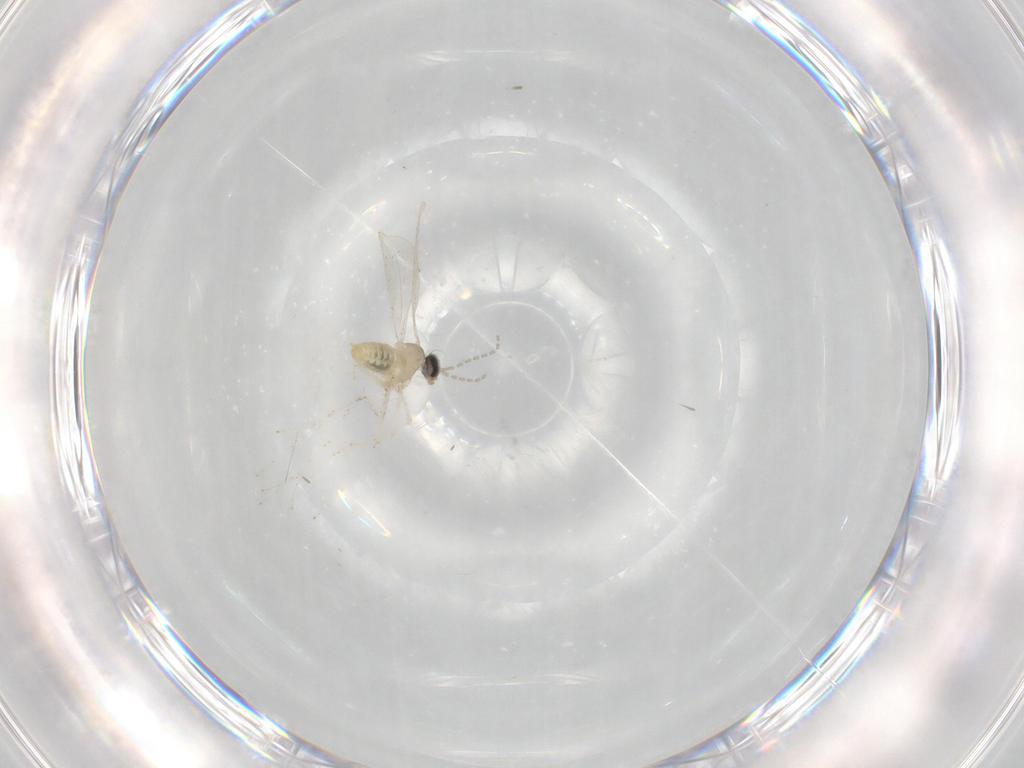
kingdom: Animalia
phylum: Arthropoda
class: Insecta
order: Diptera
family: Cecidomyiidae
